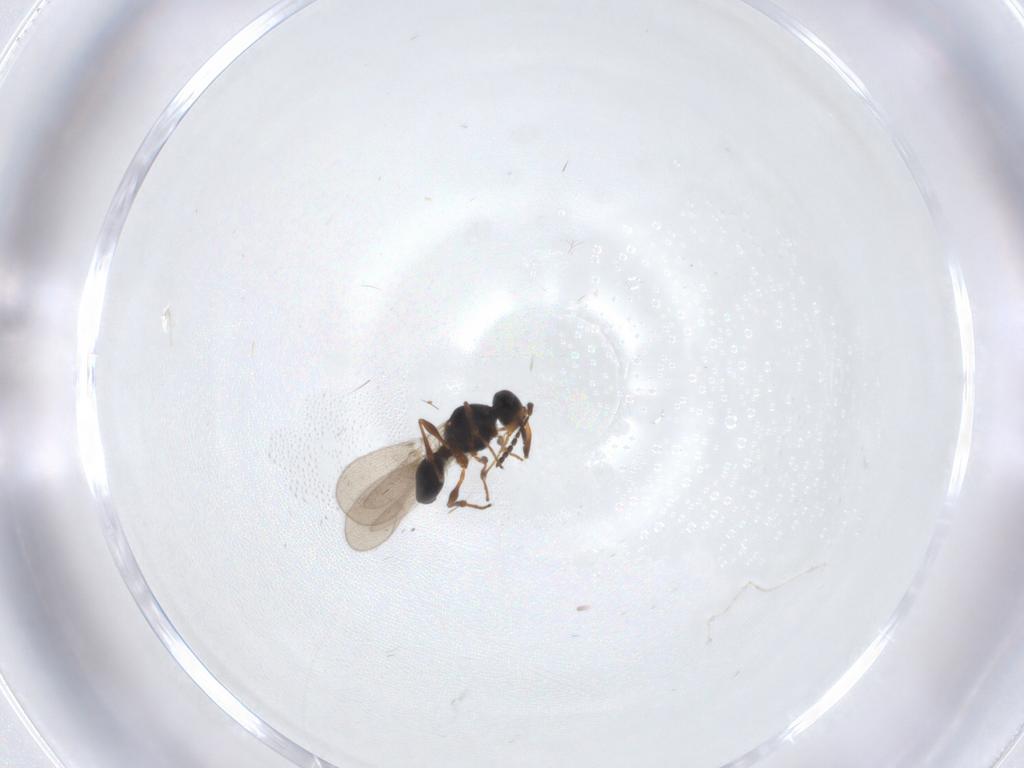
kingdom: Animalia
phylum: Arthropoda
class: Insecta
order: Hymenoptera
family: Platygastridae
